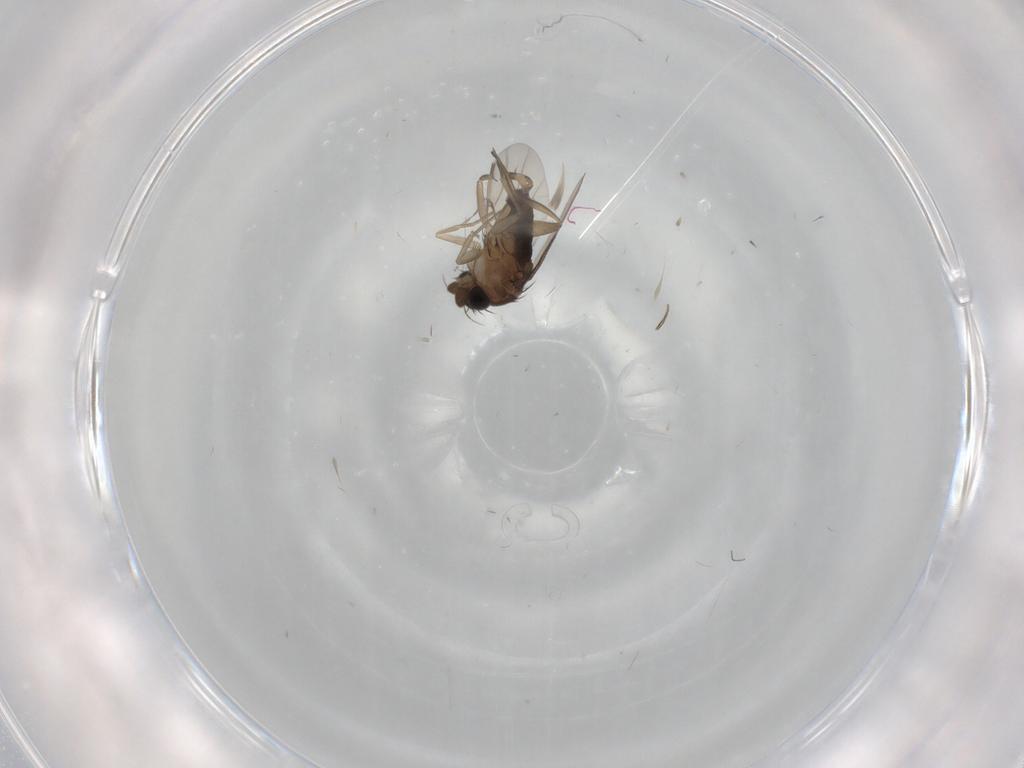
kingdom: Animalia
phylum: Arthropoda
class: Insecta
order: Diptera
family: Phoridae
